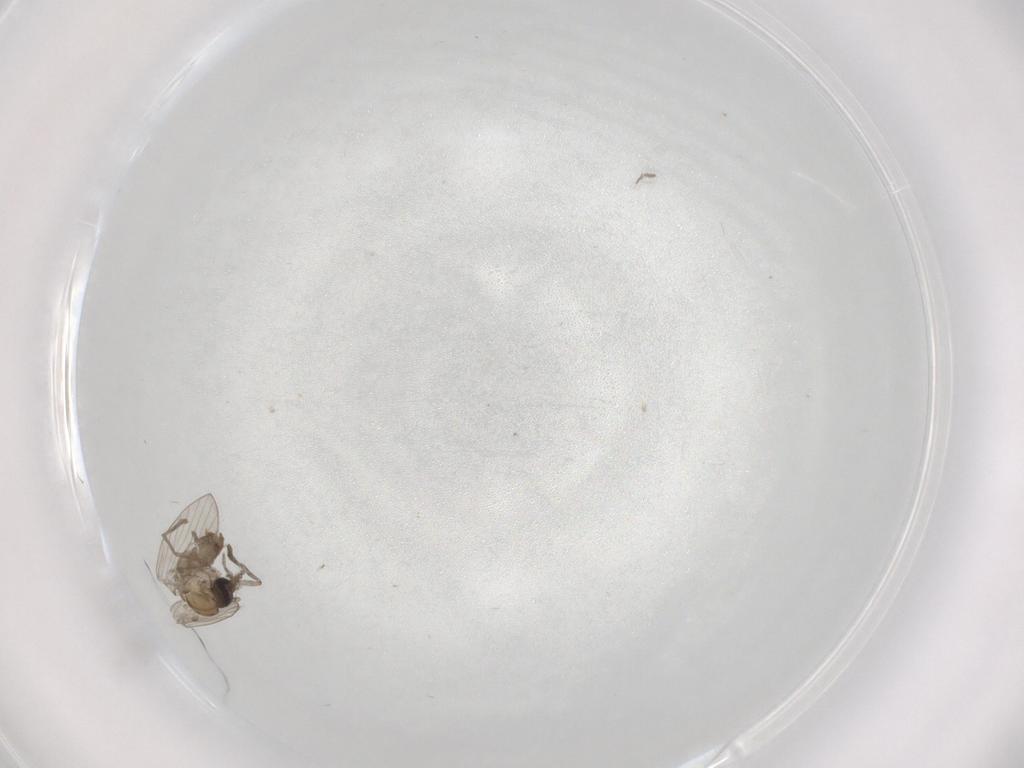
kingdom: Animalia
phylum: Arthropoda
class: Insecta
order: Diptera
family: Psychodidae
